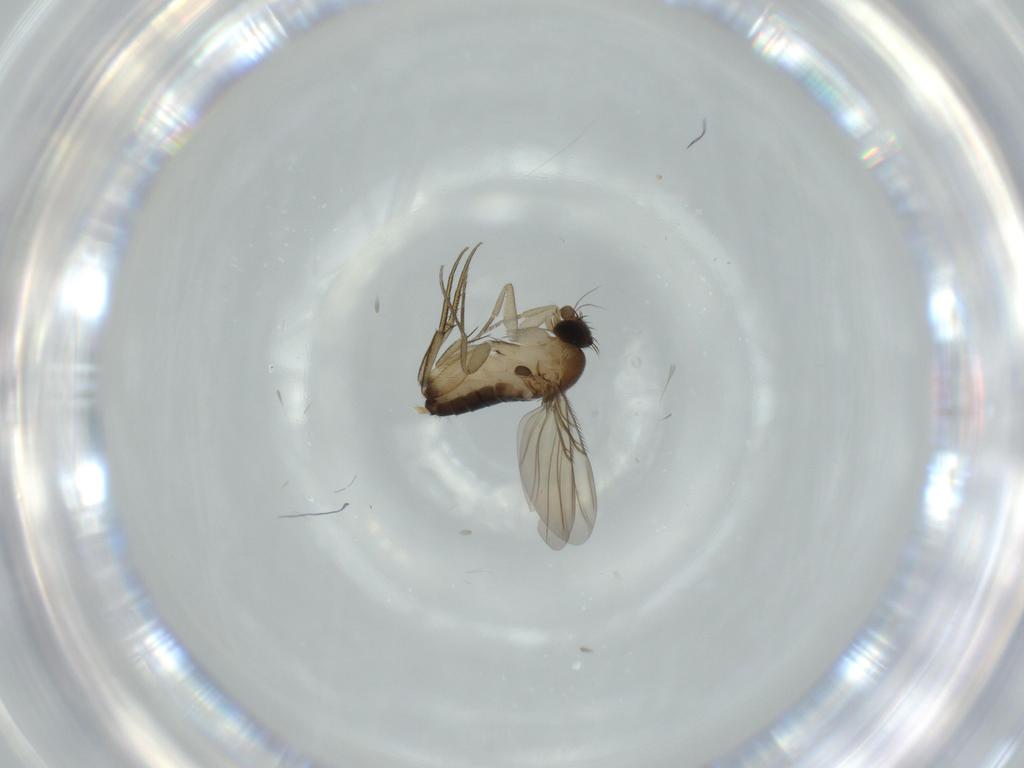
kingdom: Animalia
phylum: Arthropoda
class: Insecta
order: Diptera
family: Phoridae
